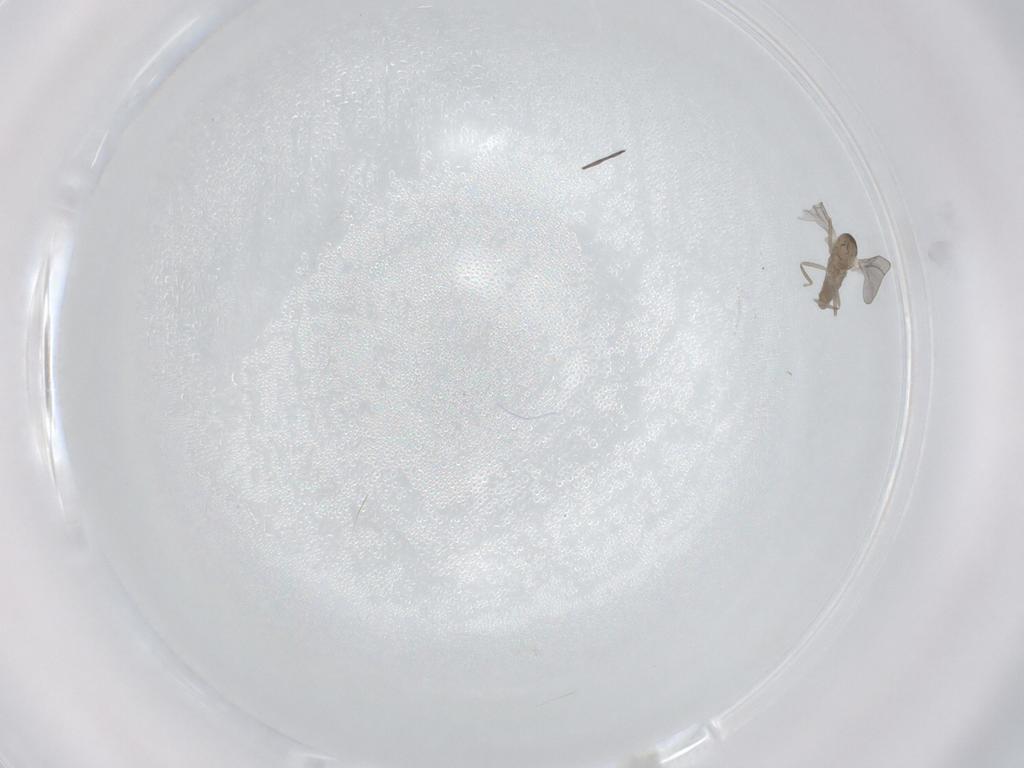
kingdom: Animalia
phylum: Arthropoda
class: Insecta
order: Diptera
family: Cecidomyiidae
